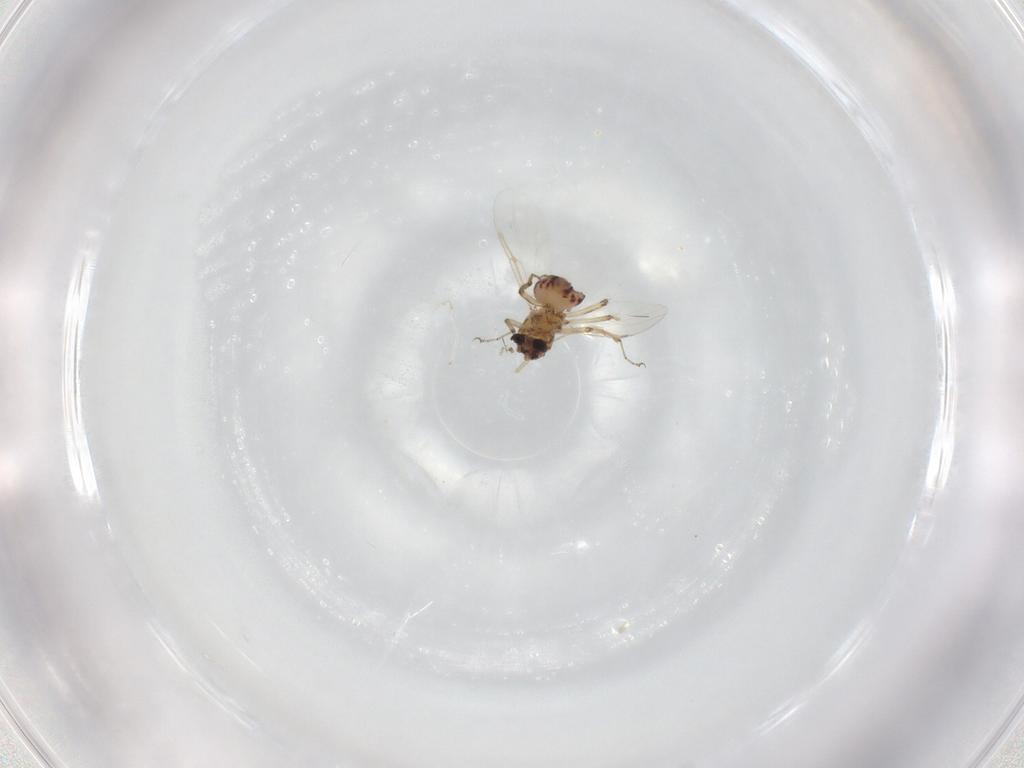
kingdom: Animalia
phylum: Arthropoda
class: Insecta
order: Diptera
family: Ceratopogonidae
